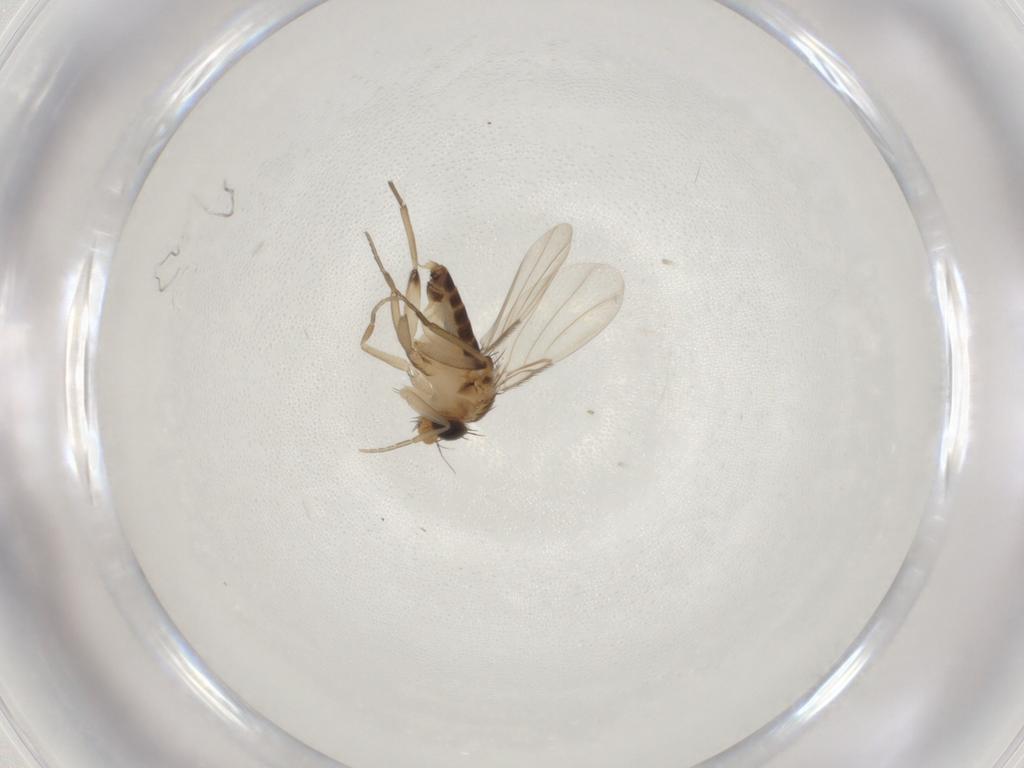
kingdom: Animalia
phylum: Arthropoda
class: Insecta
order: Diptera
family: Phoridae
